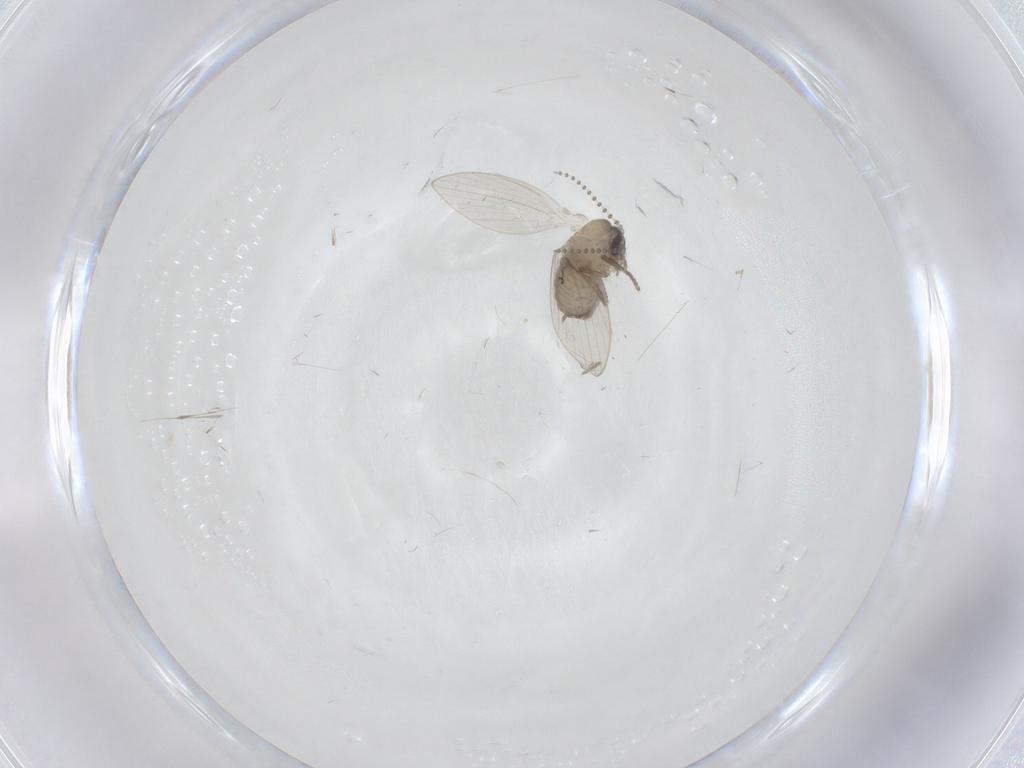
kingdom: Animalia
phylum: Arthropoda
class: Insecta
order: Diptera
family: Psychodidae
